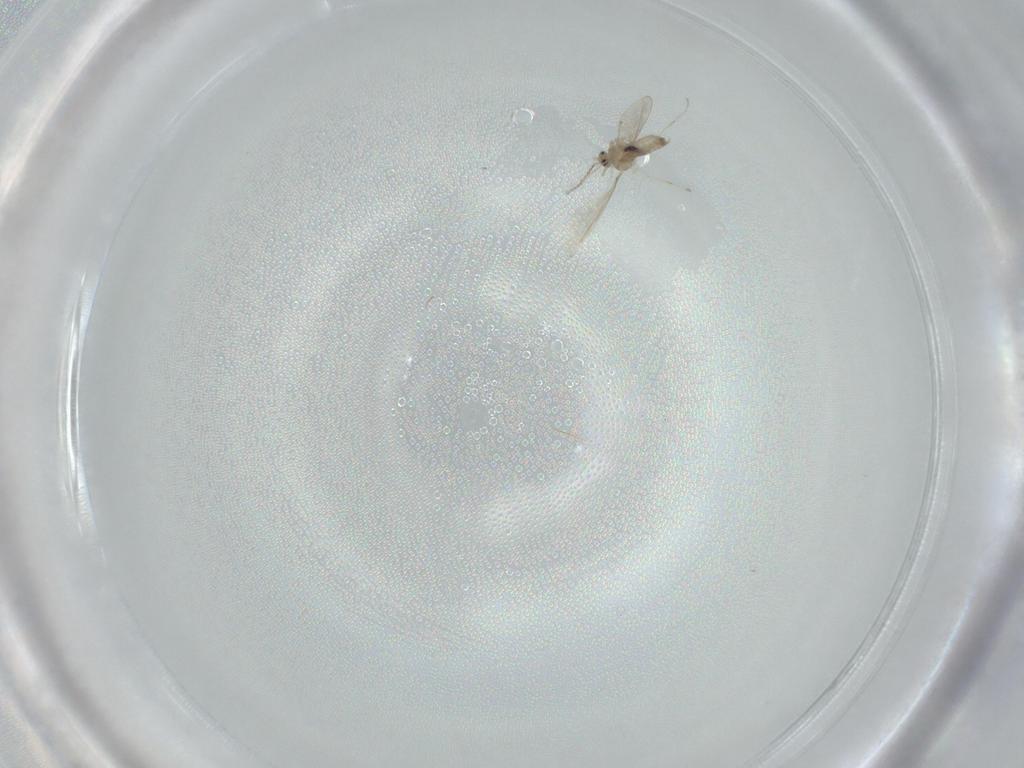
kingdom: Animalia
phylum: Arthropoda
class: Insecta
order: Diptera
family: Cecidomyiidae
